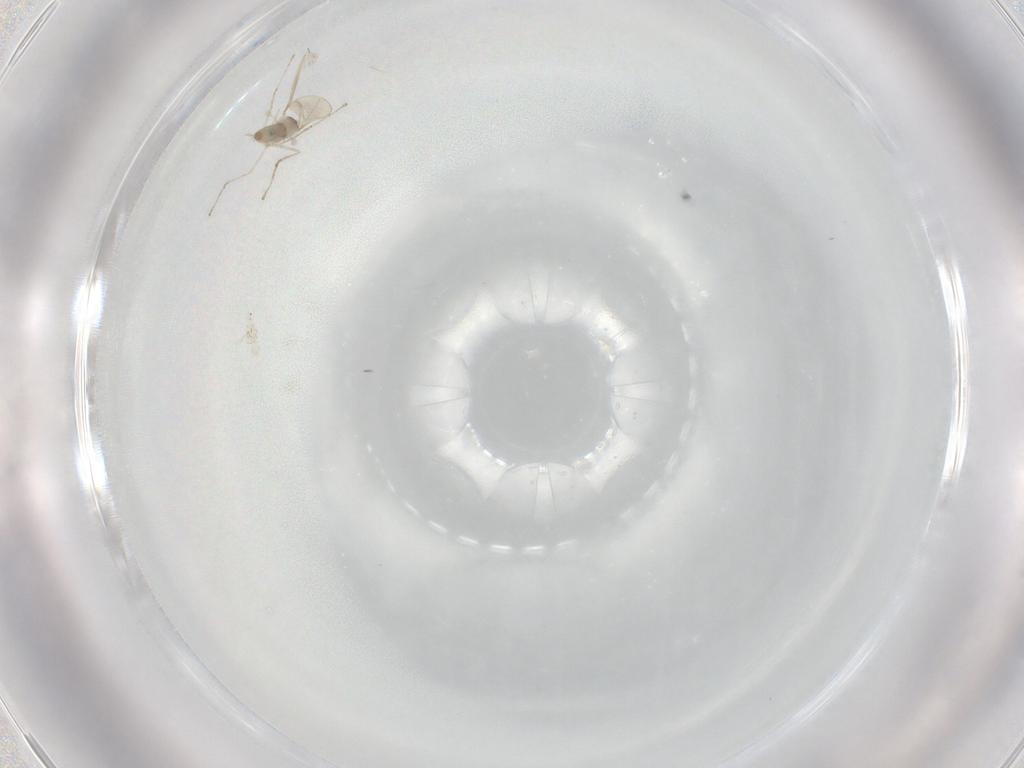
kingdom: Animalia
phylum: Arthropoda
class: Insecta
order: Diptera
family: Cecidomyiidae
